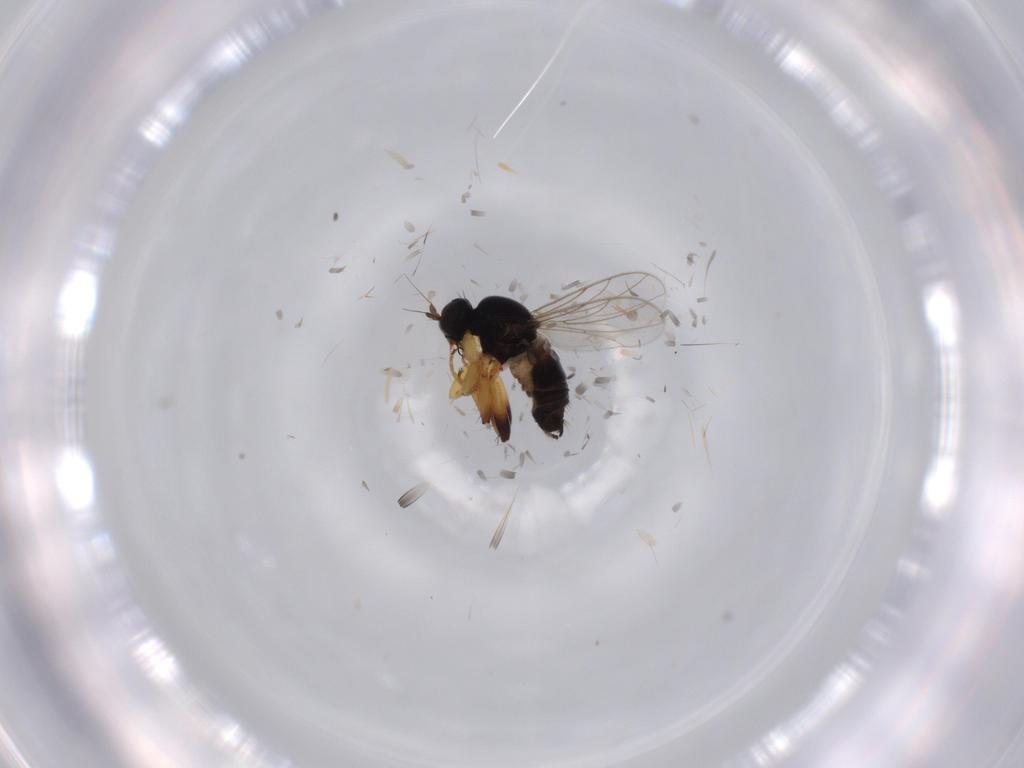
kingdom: Animalia
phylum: Arthropoda
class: Insecta
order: Diptera
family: Hybotidae
